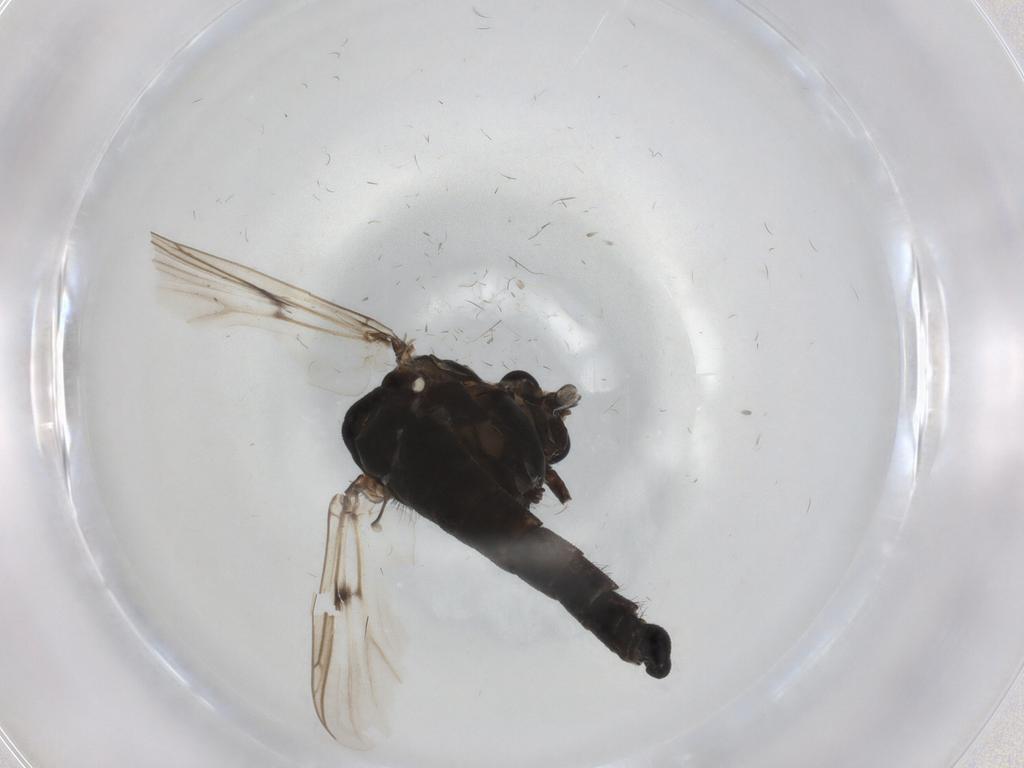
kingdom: Animalia
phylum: Arthropoda
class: Insecta
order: Diptera
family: Chironomidae
